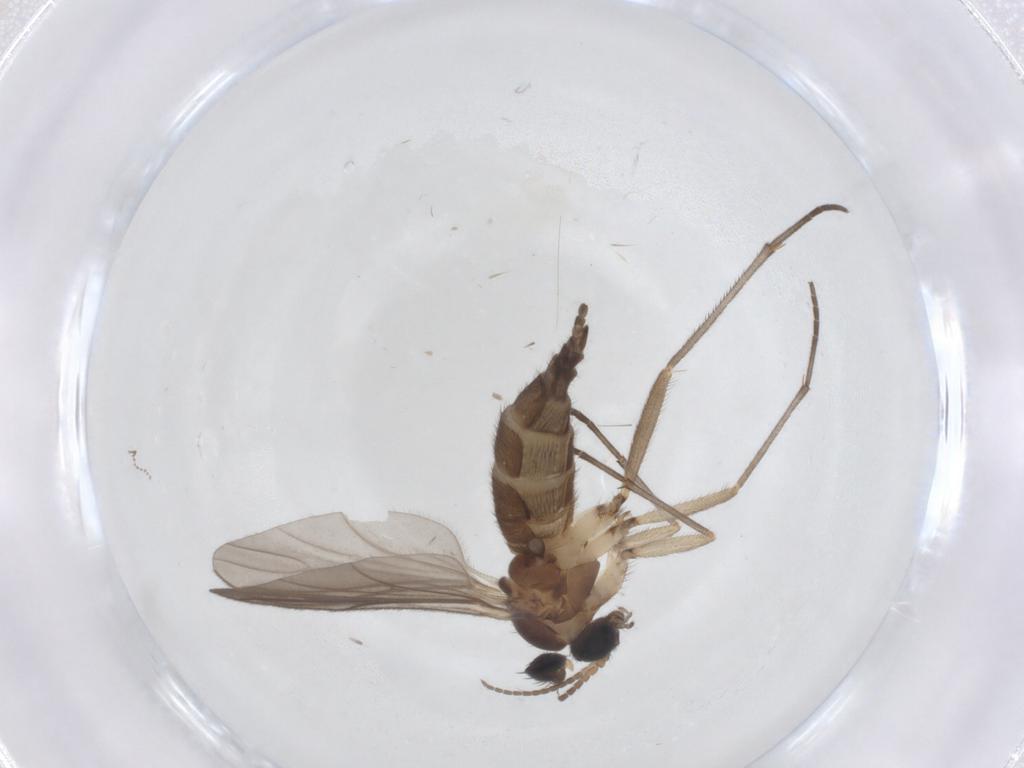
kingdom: Animalia
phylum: Arthropoda
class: Insecta
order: Diptera
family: Sciaridae
